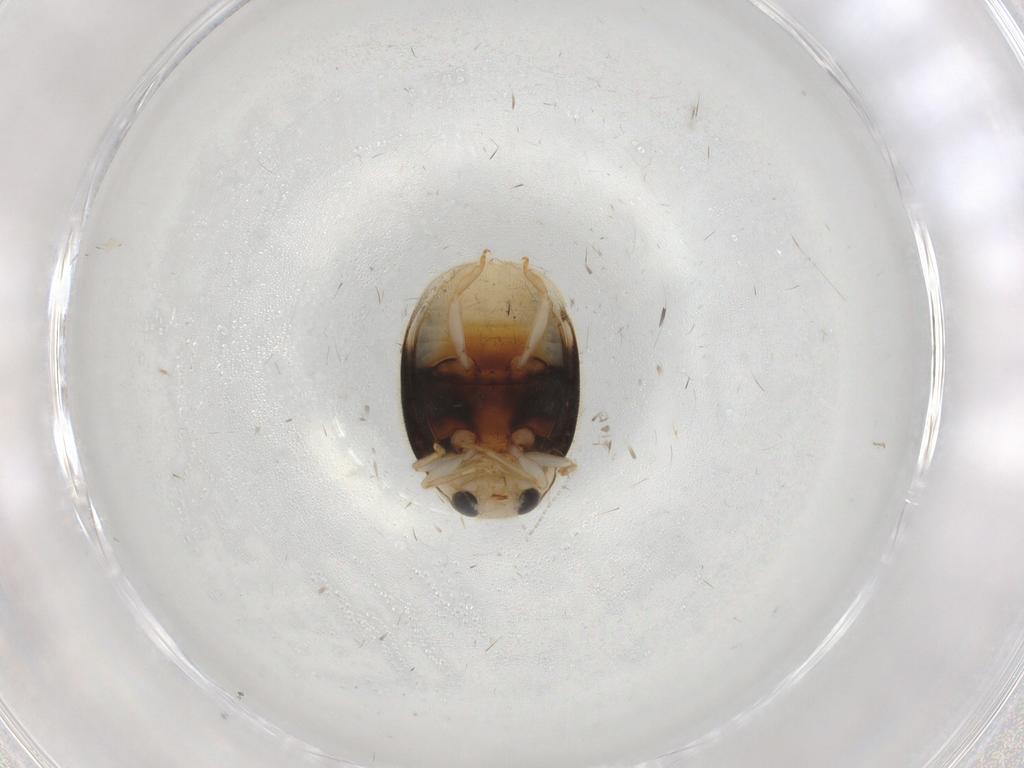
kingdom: Animalia
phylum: Arthropoda
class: Insecta
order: Coleoptera
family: Coccinellidae
